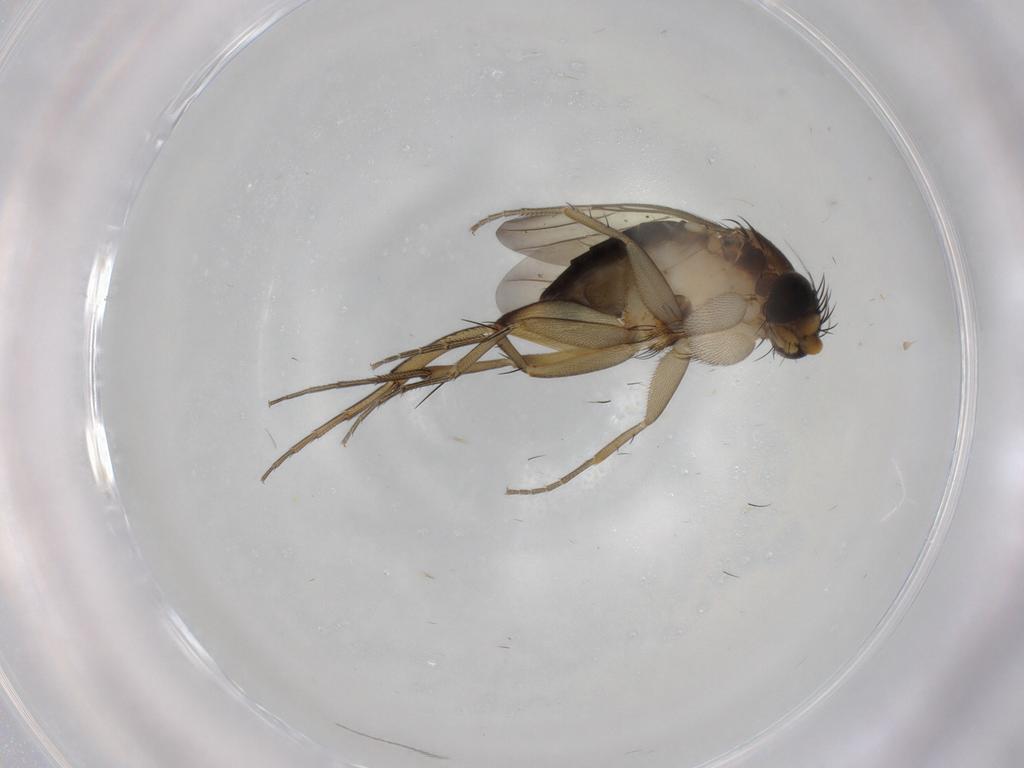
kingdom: Animalia
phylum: Arthropoda
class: Insecta
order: Diptera
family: Phoridae
